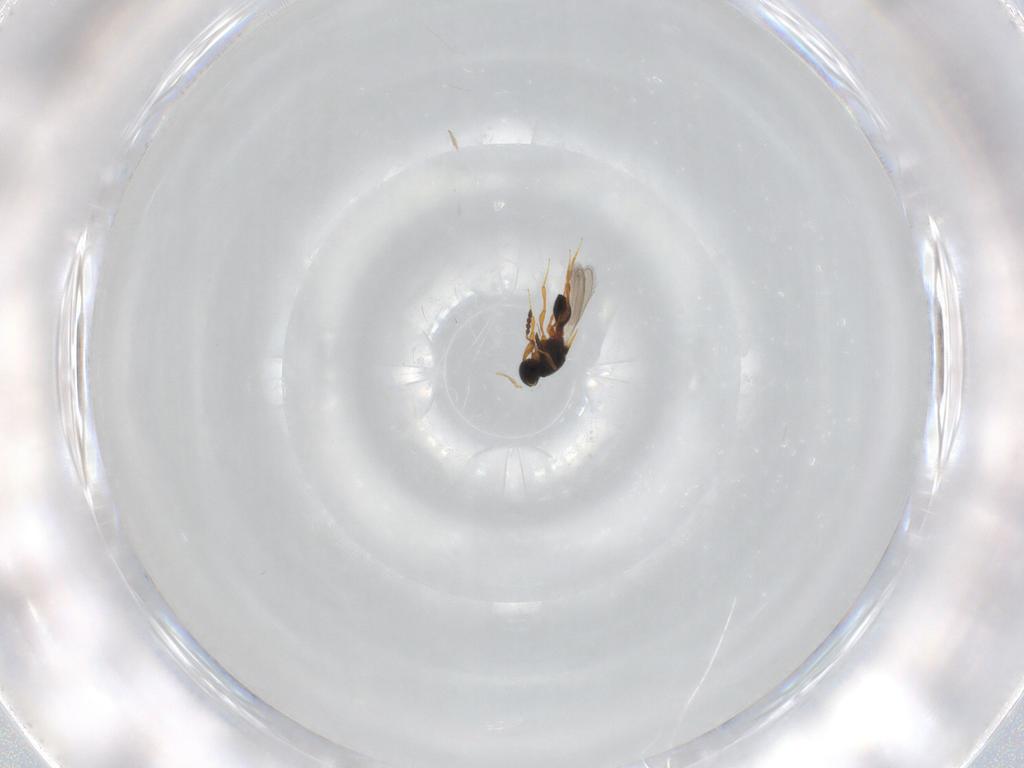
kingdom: Animalia
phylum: Arthropoda
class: Insecta
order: Hymenoptera
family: Platygastridae
